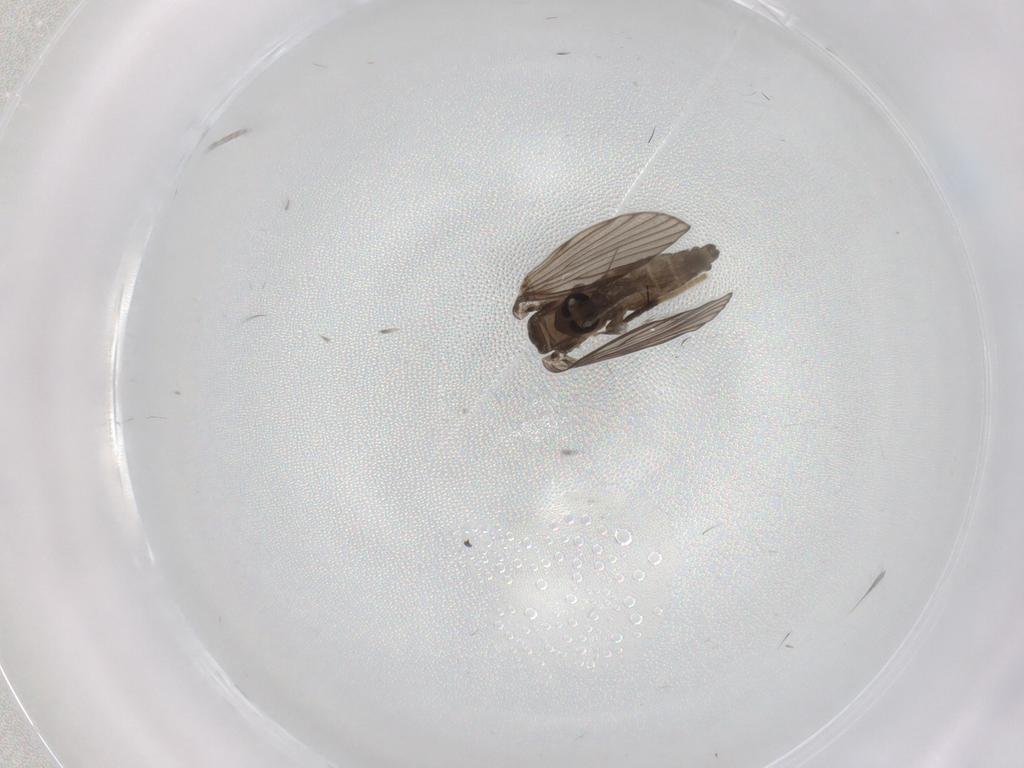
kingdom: Animalia
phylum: Arthropoda
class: Insecta
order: Diptera
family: Psychodidae
